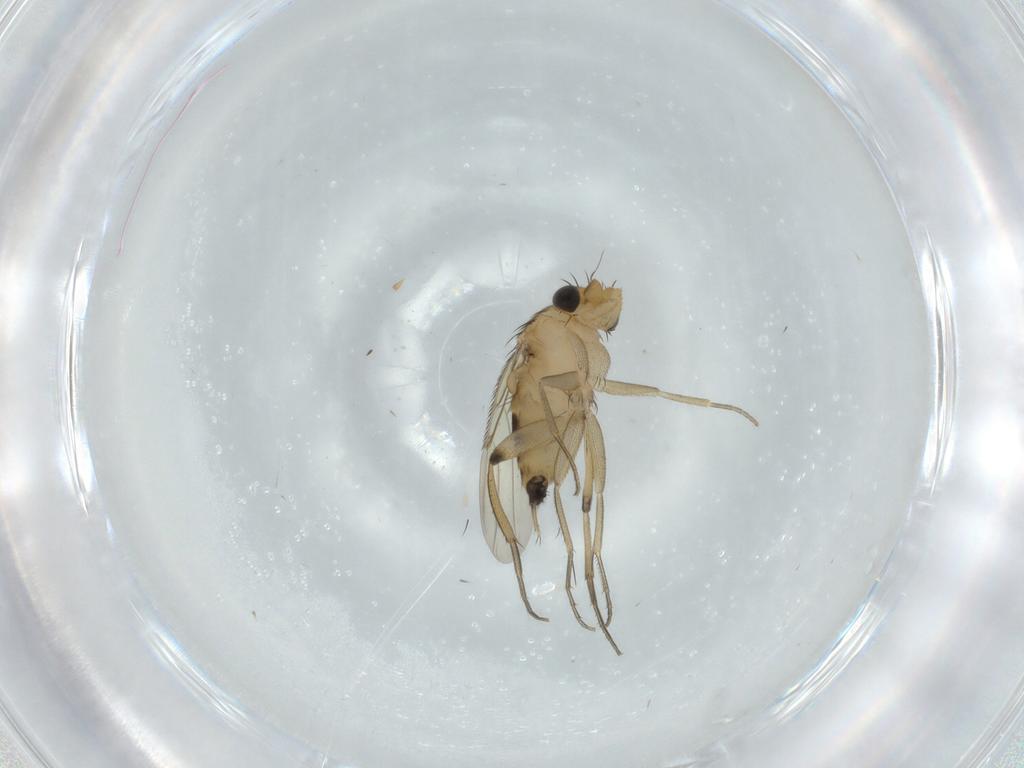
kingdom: Animalia
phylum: Arthropoda
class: Insecta
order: Diptera
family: Phoridae
